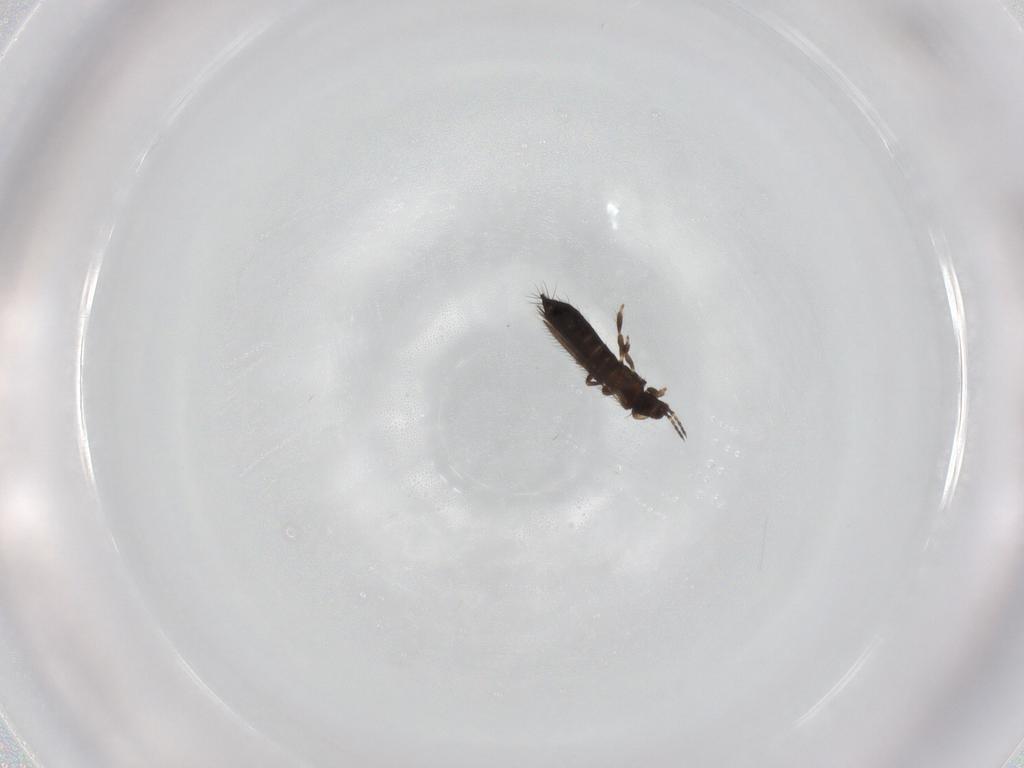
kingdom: Animalia
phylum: Arthropoda
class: Insecta
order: Thysanoptera
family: Thripidae
